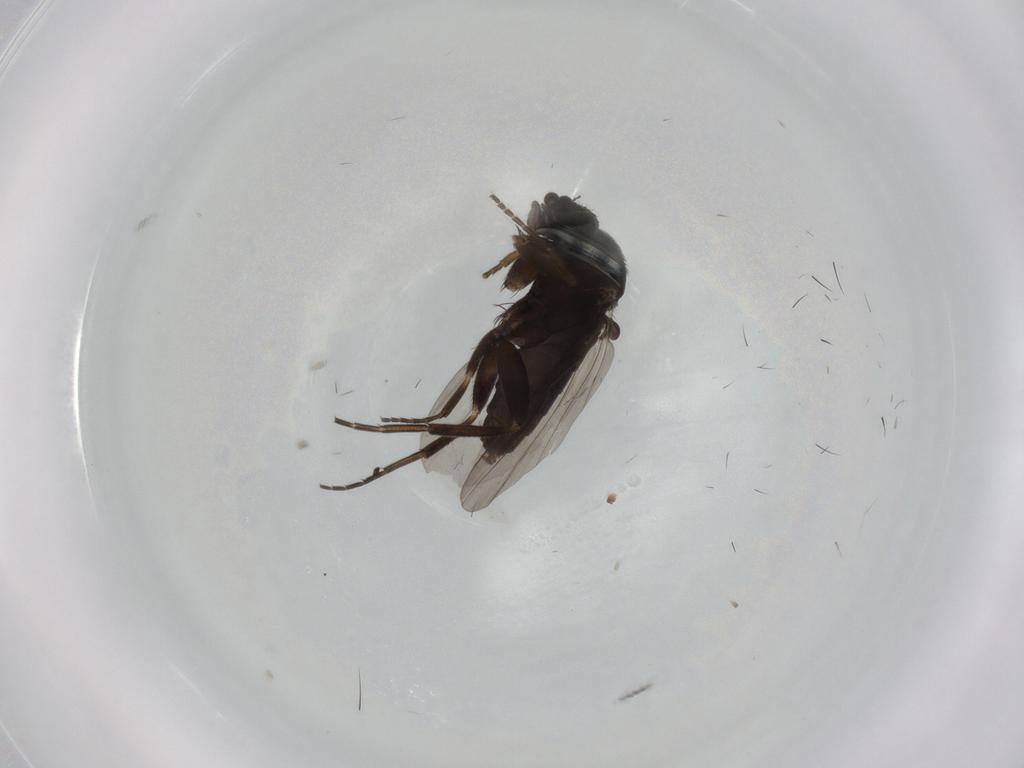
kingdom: Animalia
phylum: Arthropoda
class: Insecta
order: Diptera
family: Phoridae
